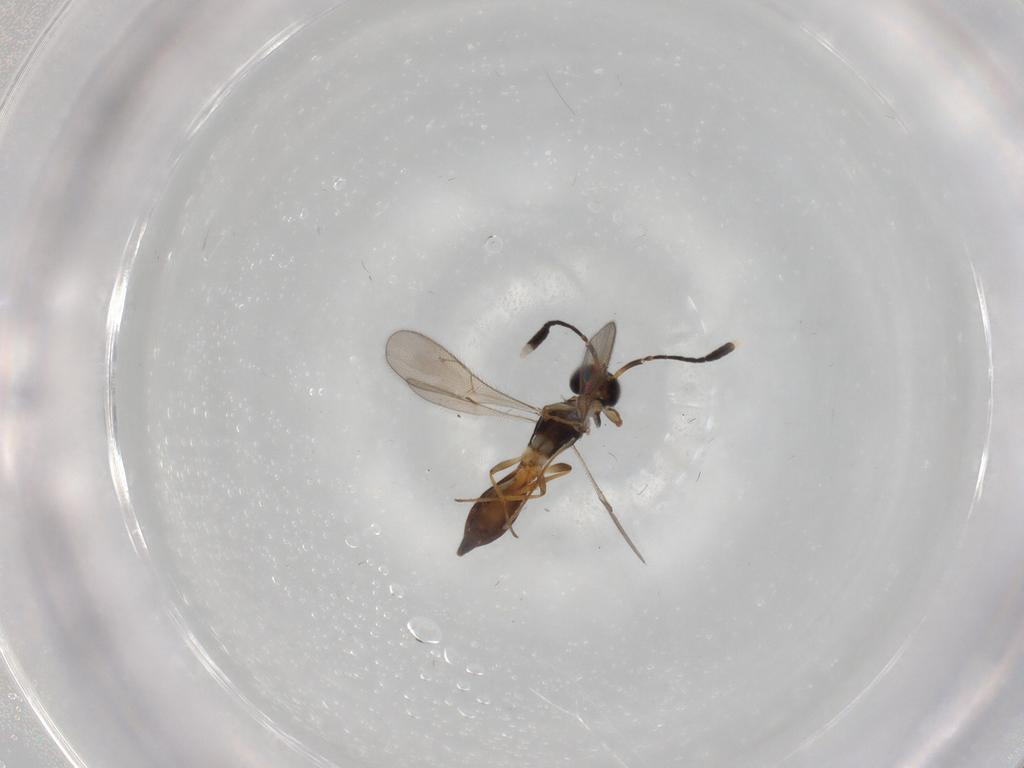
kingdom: Animalia
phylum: Arthropoda
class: Insecta
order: Hymenoptera
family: Scelionidae
